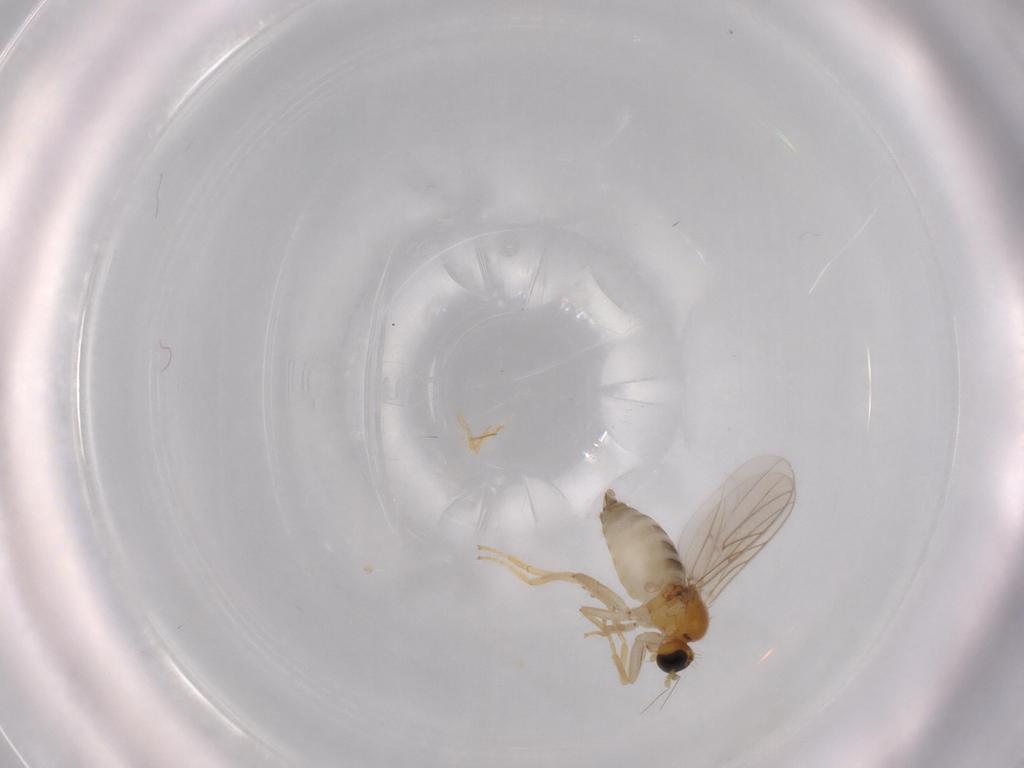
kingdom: Animalia
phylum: Arthropoda
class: Insecta
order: Diptera
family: Hybotidae
